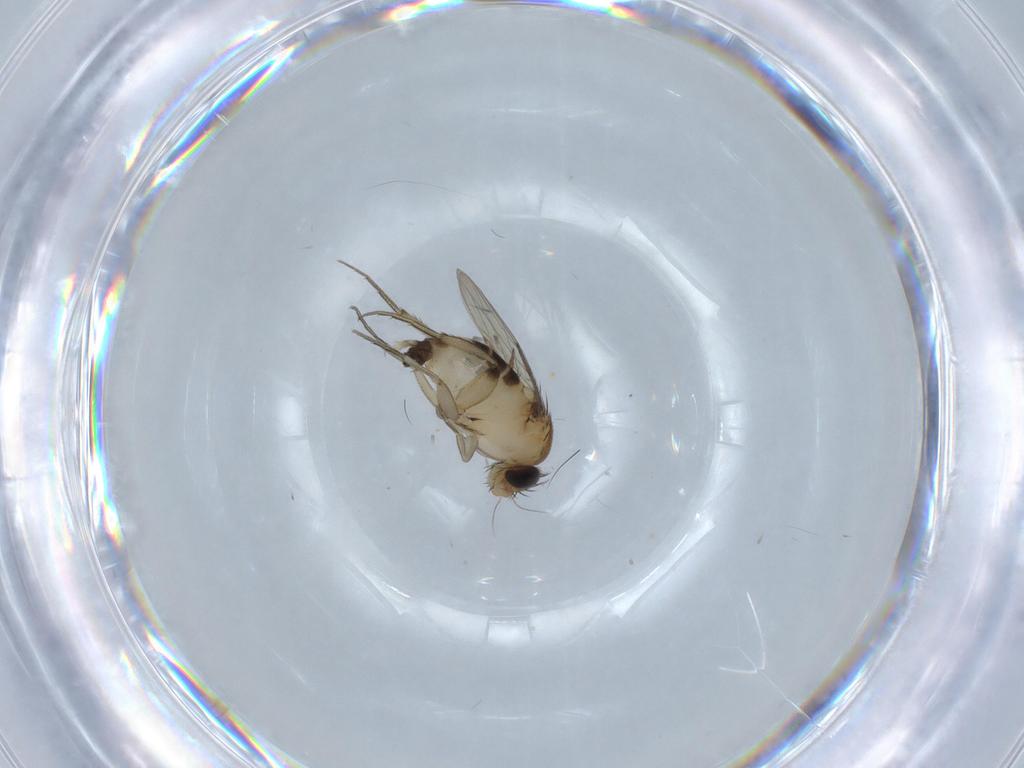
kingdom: Animalia
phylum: Arthropoda
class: Insecta
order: Diptera
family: Phoridae
